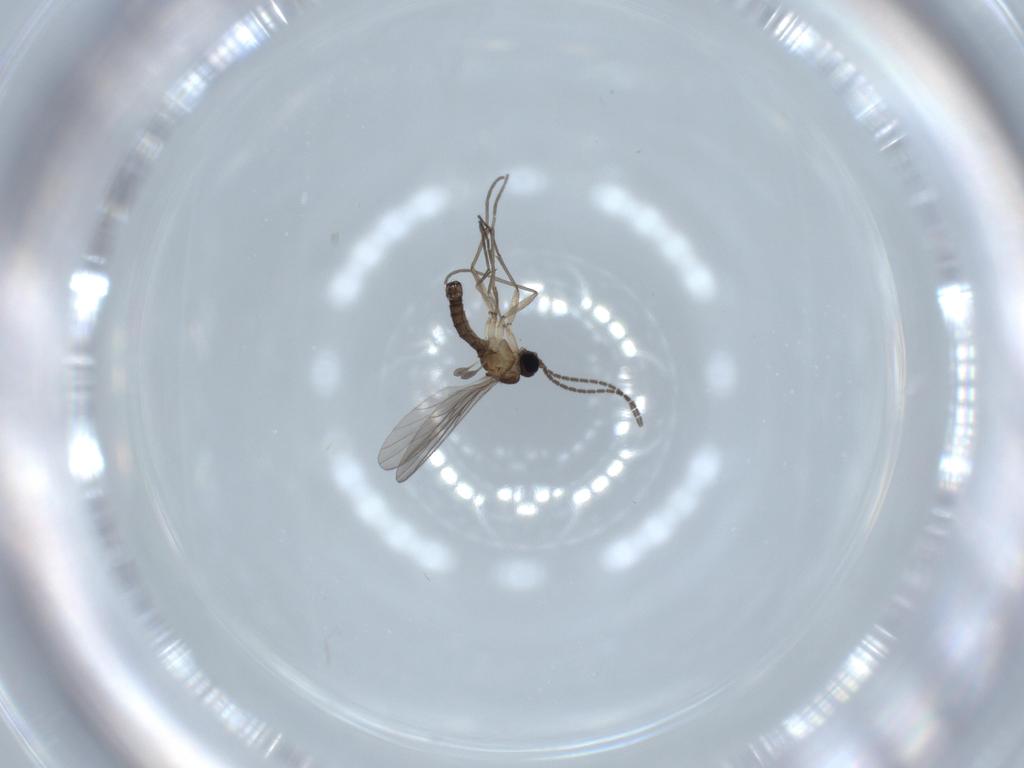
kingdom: Animalia
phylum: Arthropoda
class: Insecta
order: Diptera
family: Sciaridae
